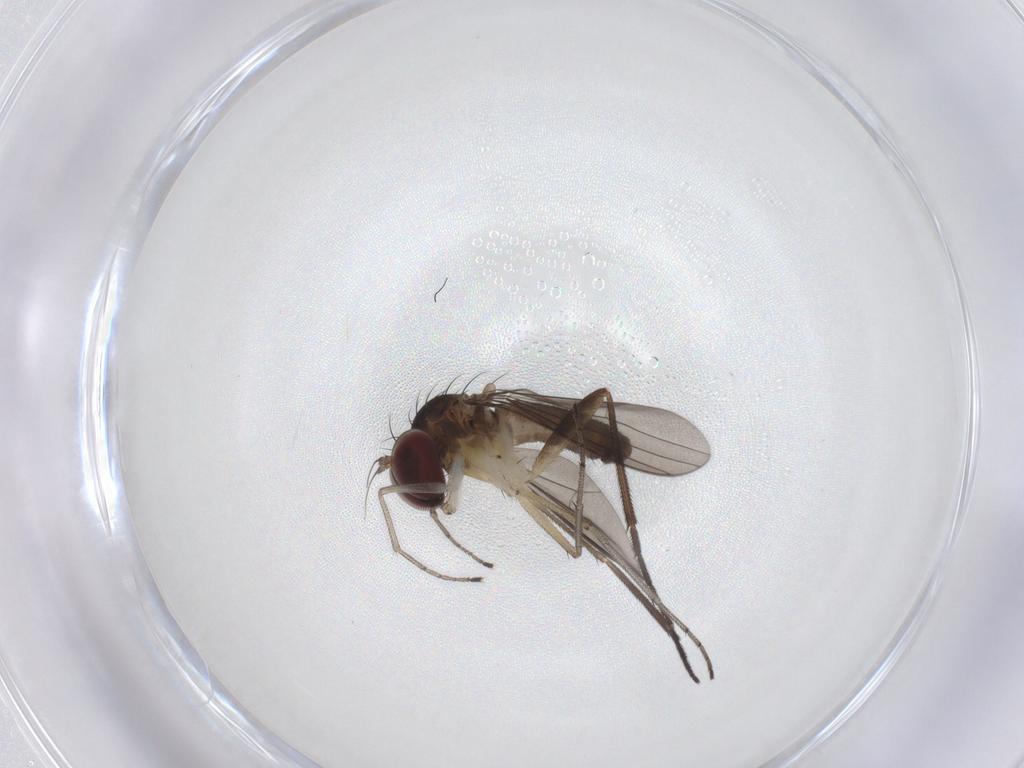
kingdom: Animalia
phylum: Arthropoda
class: Insecta
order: Diptera
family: Dolichopodidae
